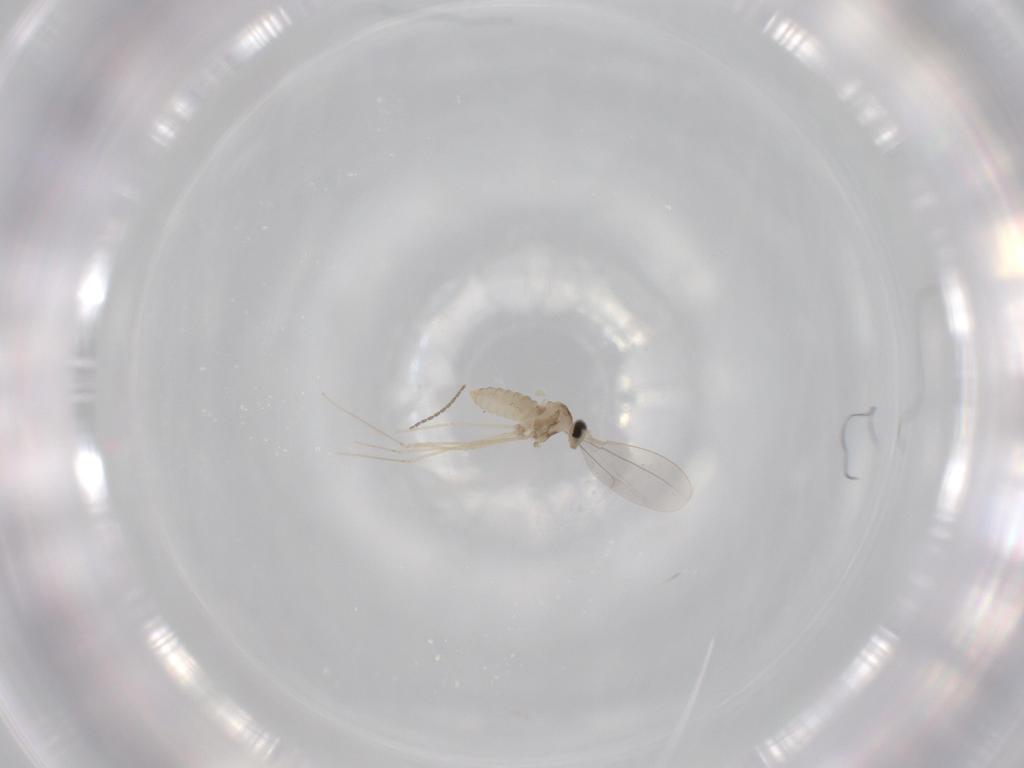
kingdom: Animalia
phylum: Arthropoda
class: Insecta
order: Diptera
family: Cecidomyiidae
